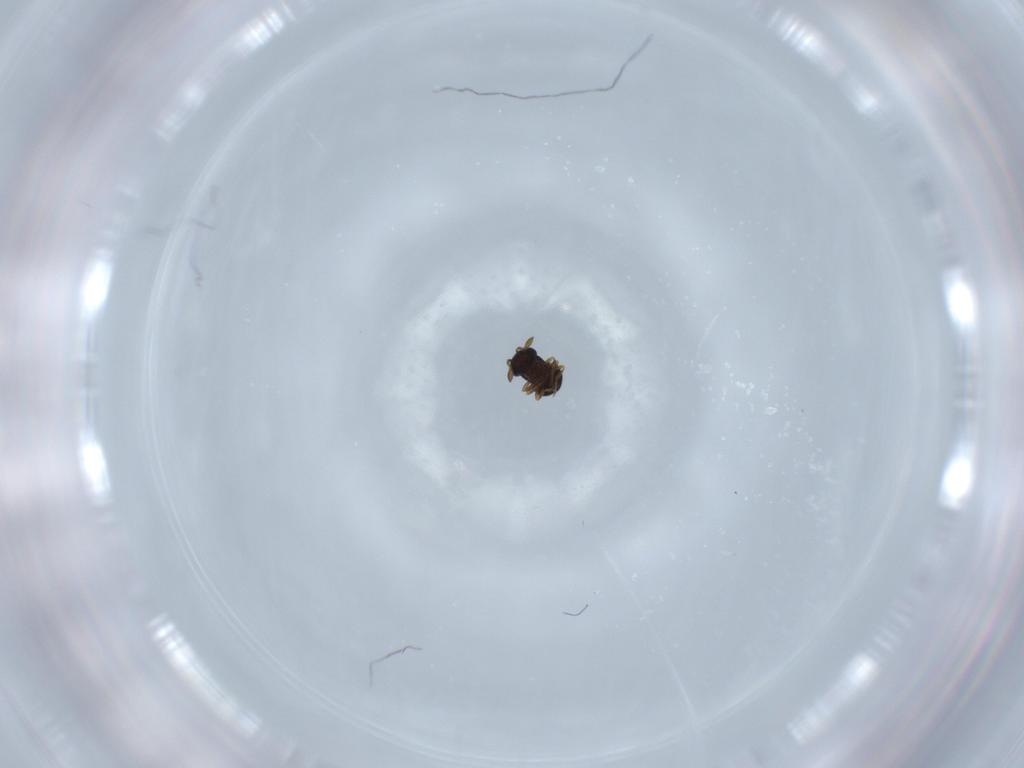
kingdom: Animalia
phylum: Arthropoda
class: Insecta
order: Hymenoptera
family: Scelionidae
